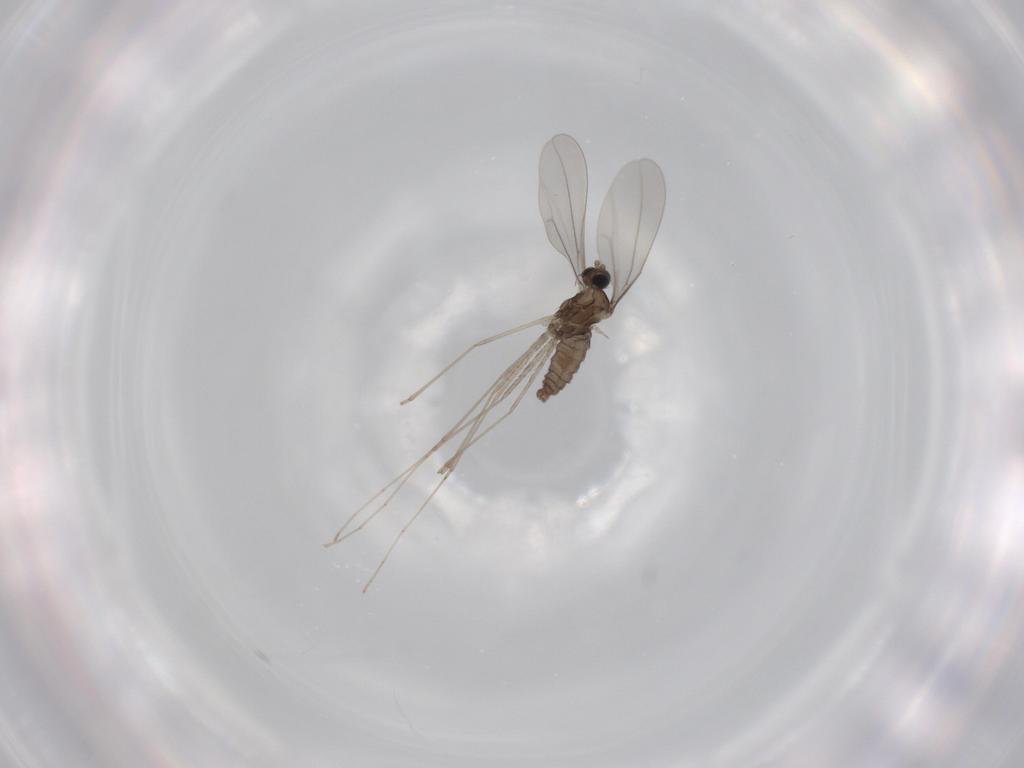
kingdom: Animalia
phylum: Arthropoda
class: Insecta
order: Diptera
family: Cecidomyiidae
